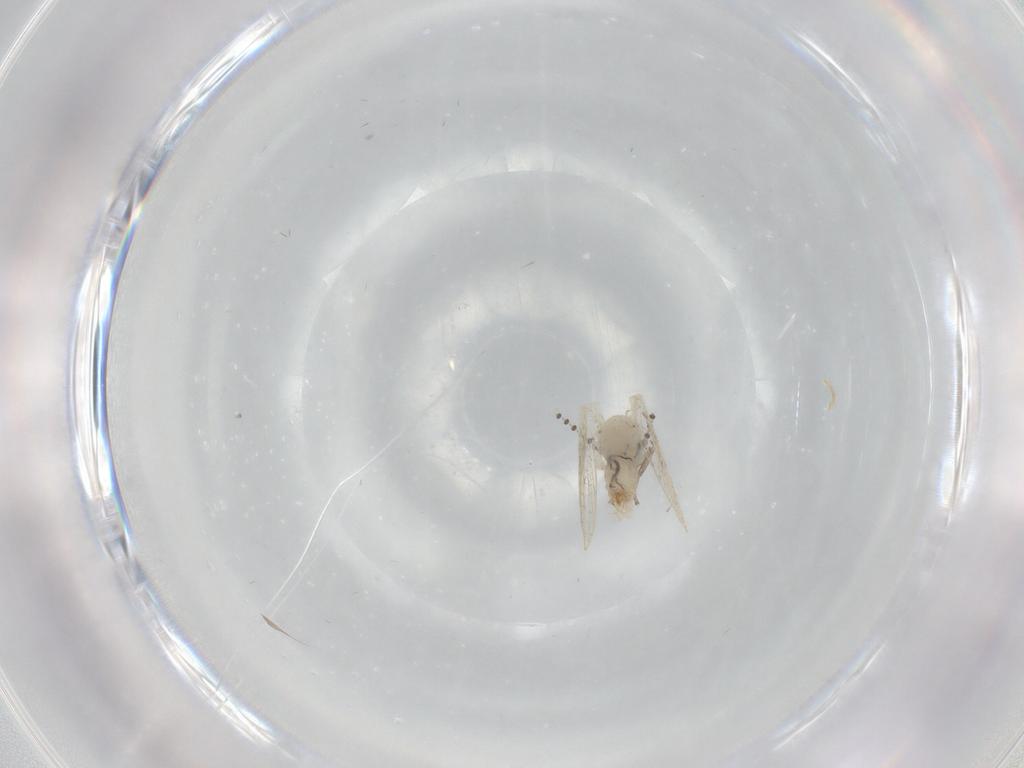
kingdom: Animalia
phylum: Arthropoda
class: Insecta
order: Diptera
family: Psychodidae
